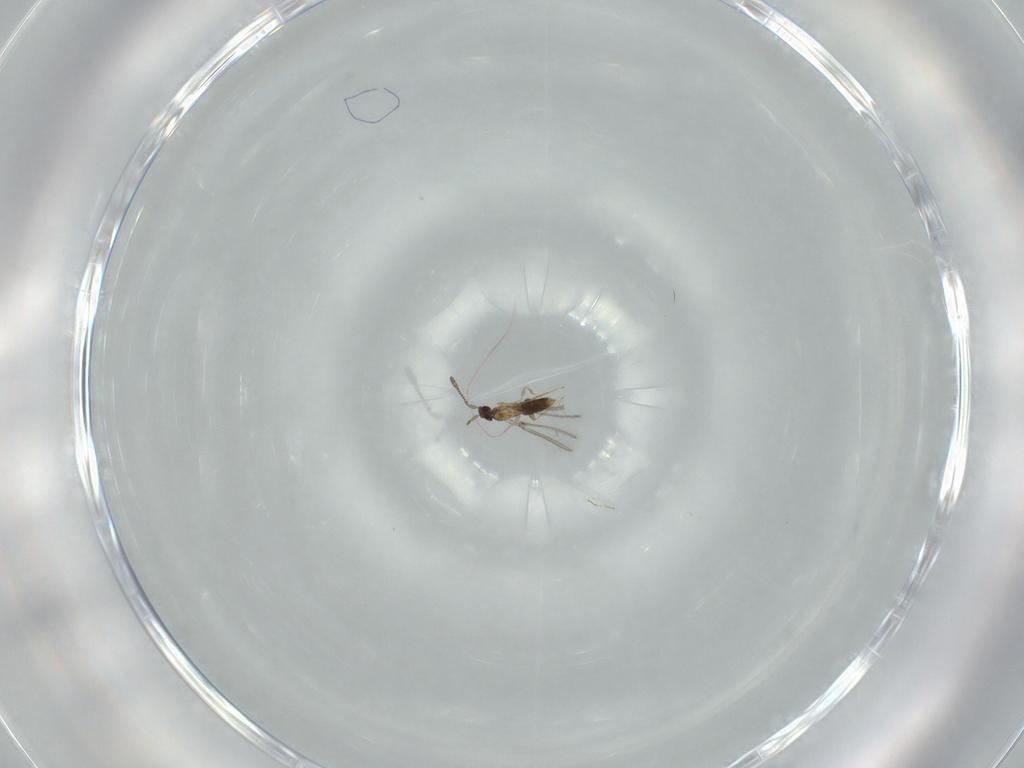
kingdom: Animalia
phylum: Arthropoda
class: Insecta
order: Hymenoptera
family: Mymaridae
